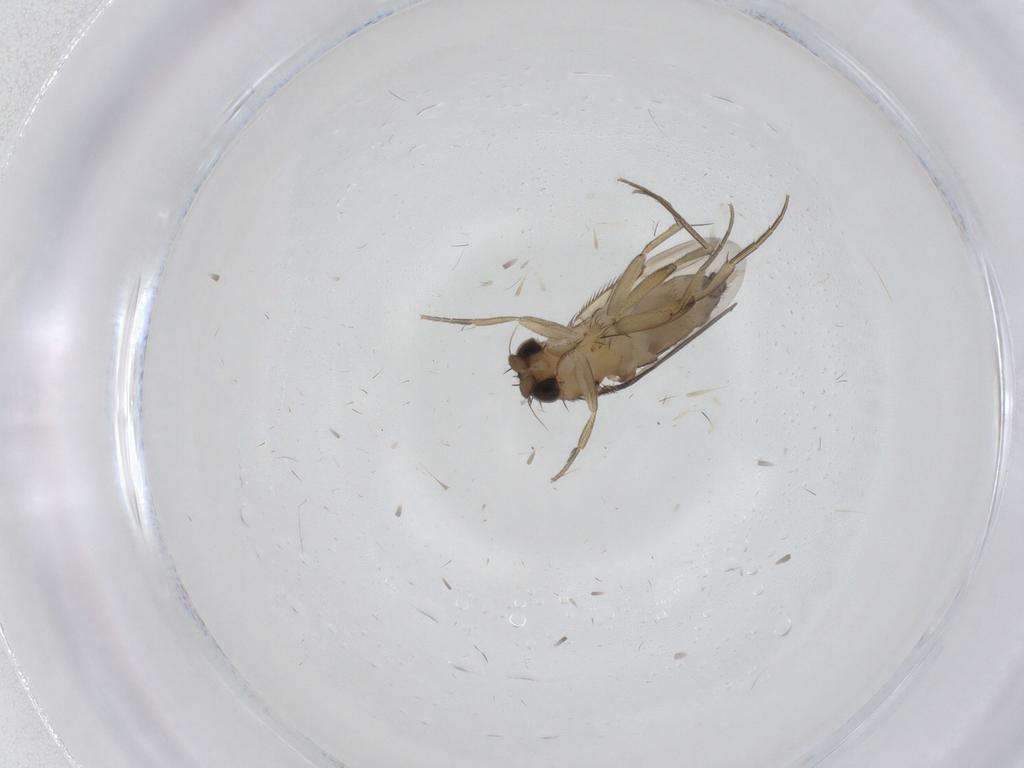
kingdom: Animalia
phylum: Arthropoda
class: Insecta
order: Diptera
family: Phoridae
